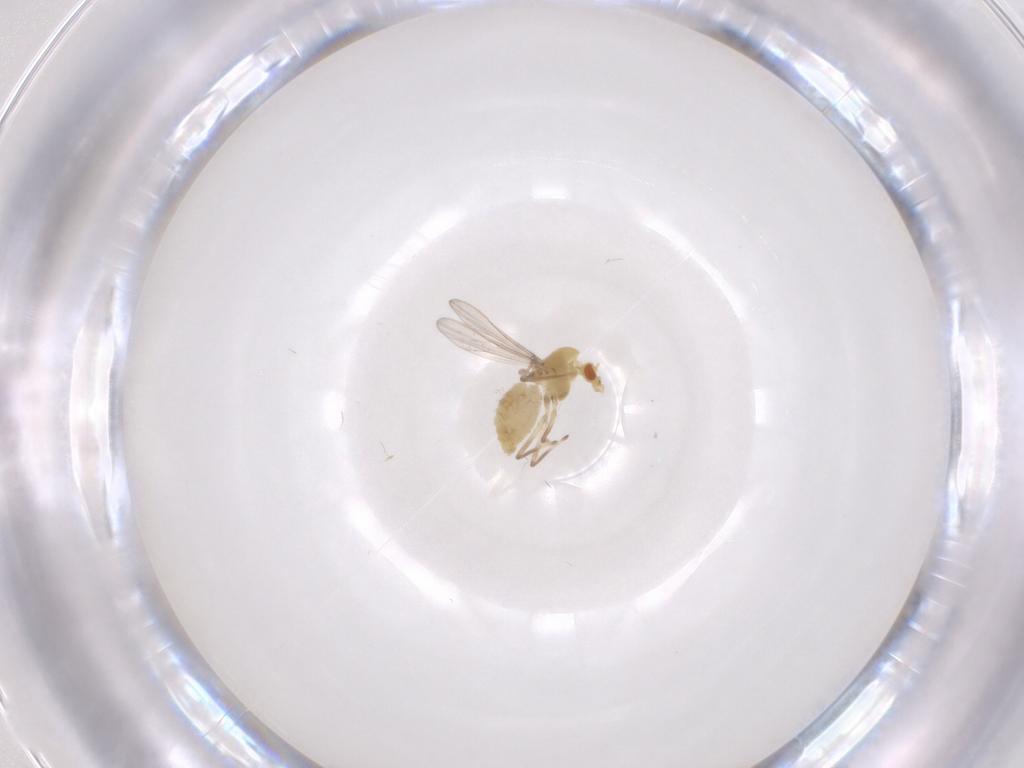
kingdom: Animalia
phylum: Arthropoda
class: Insecta
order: Diptera
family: Chironomidae
